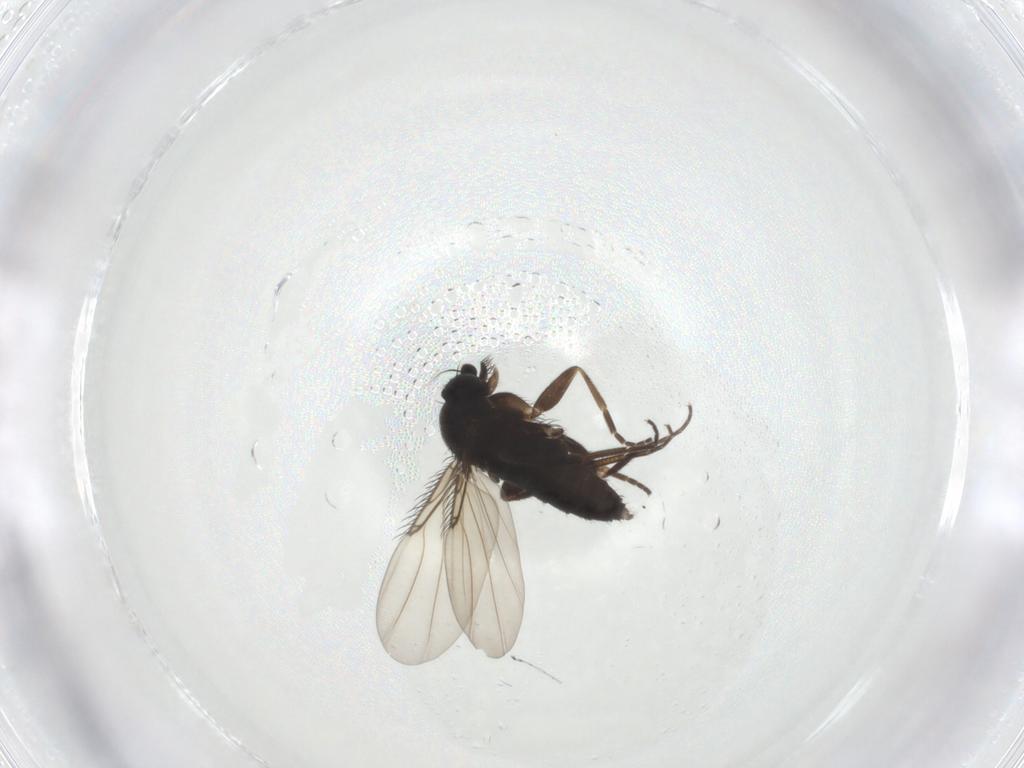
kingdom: Animalia
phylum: Arthropoda
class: Insecta
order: Diptera
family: Phoridae
